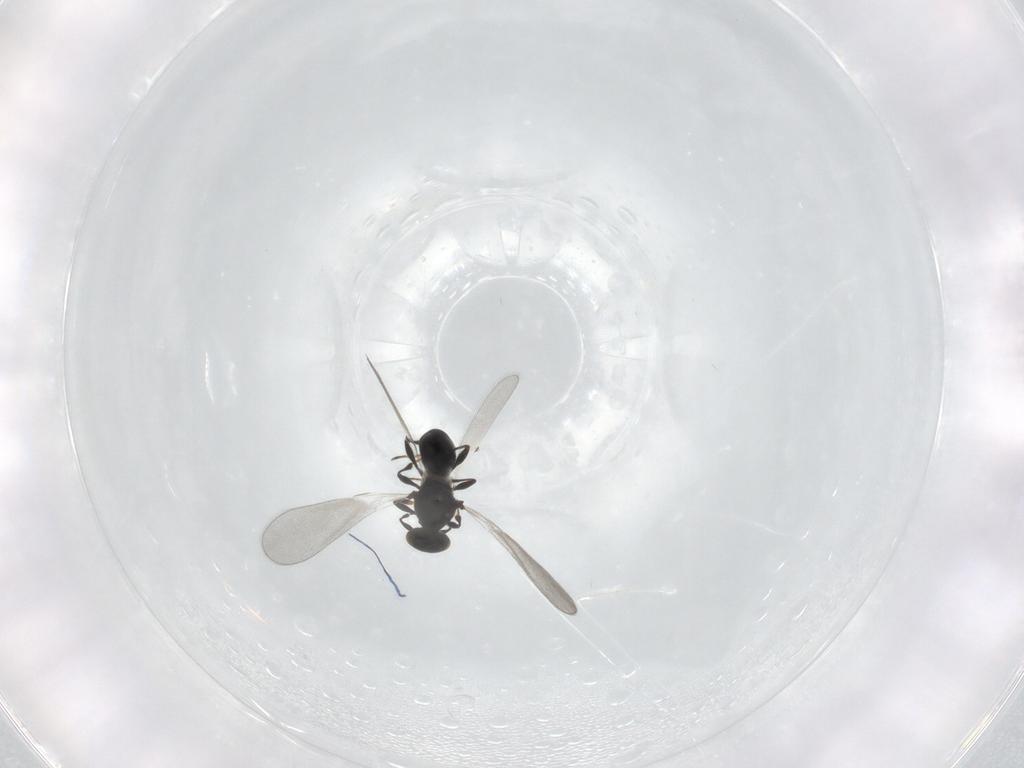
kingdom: Animalia
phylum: Arthropoda
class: Insecta
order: Hymenoptera
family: Platygastridae
